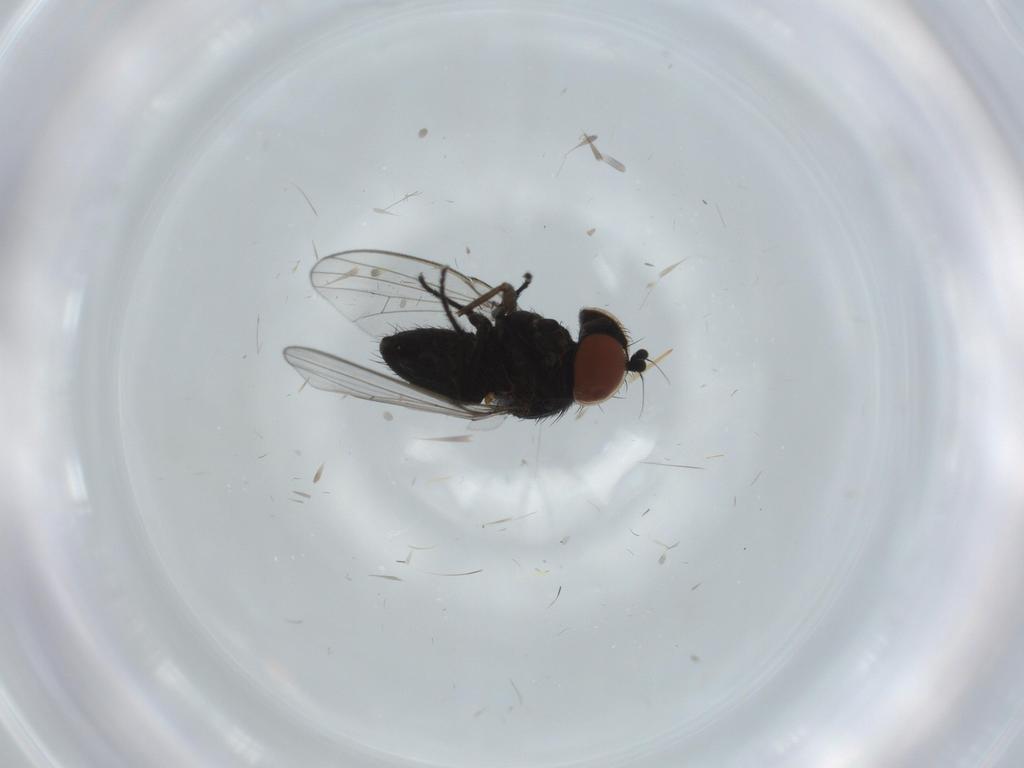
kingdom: Animalia
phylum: Arthropoda
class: Insecta
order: Diptera
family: Milichiidae
